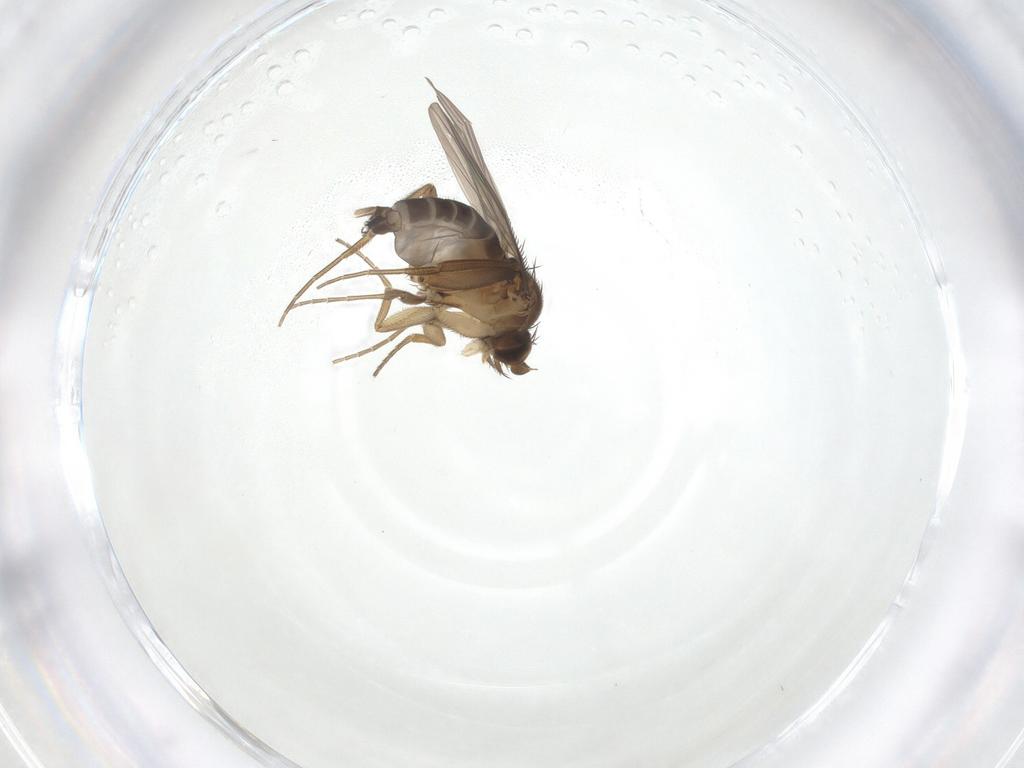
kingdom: Animalia
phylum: Arthropoda
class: Insecta
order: Diptera
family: Phoridae
